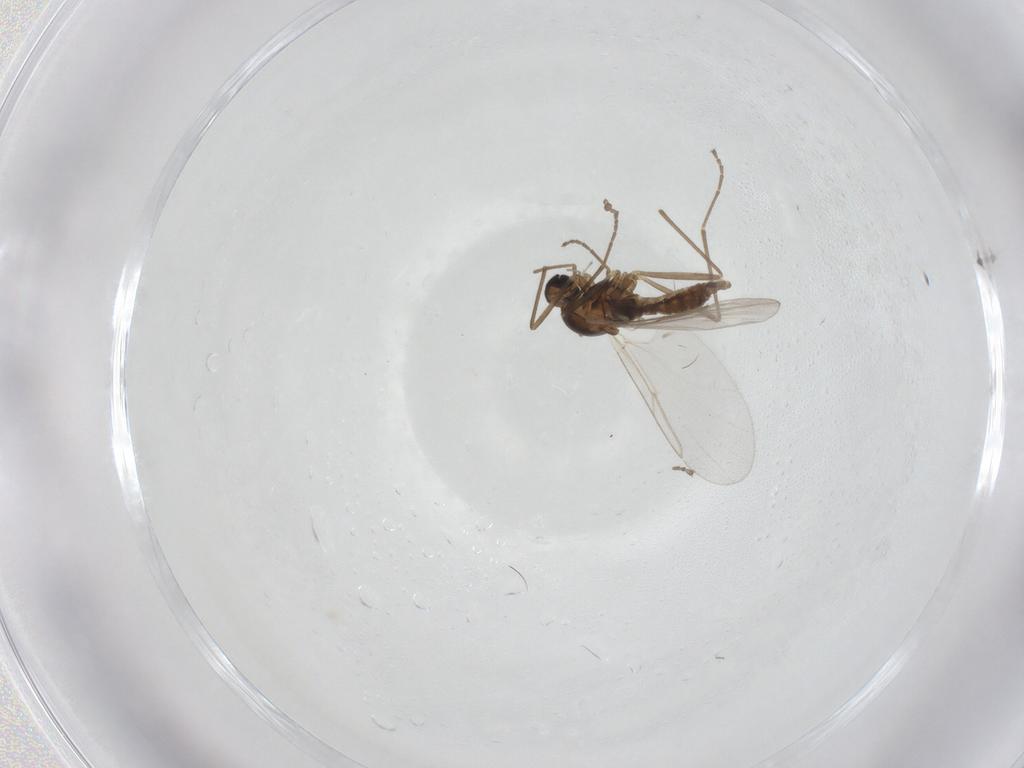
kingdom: Animalia
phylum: Arthropoda
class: Insecta
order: Diptera
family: Cecidomyiidae
